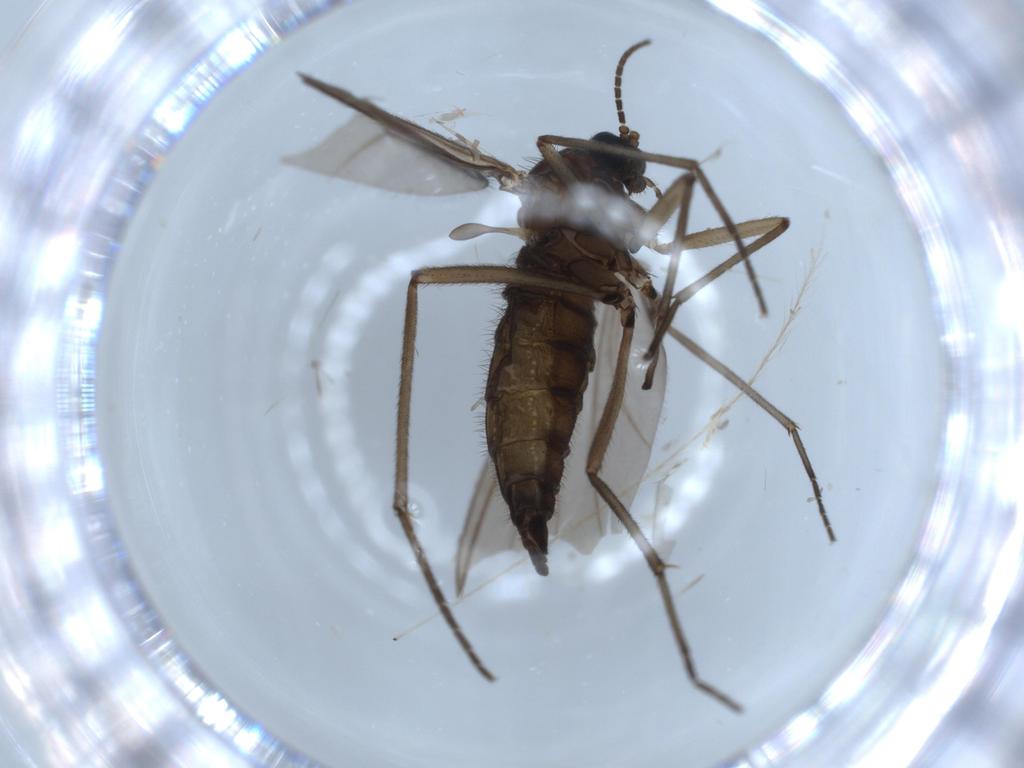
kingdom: Animalia
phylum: Arthropoda
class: Insecta
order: Diptera
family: Sciaridae
